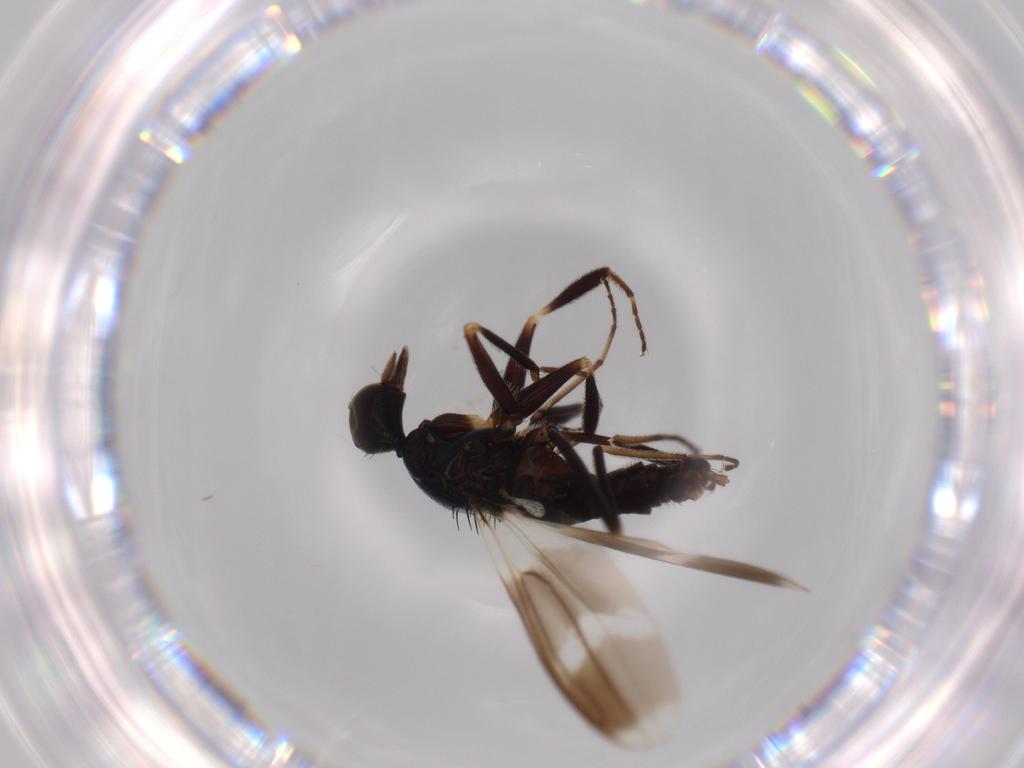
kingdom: Animalia
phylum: Arthropoda
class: Insecta
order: Diptera
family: Hybotidae
